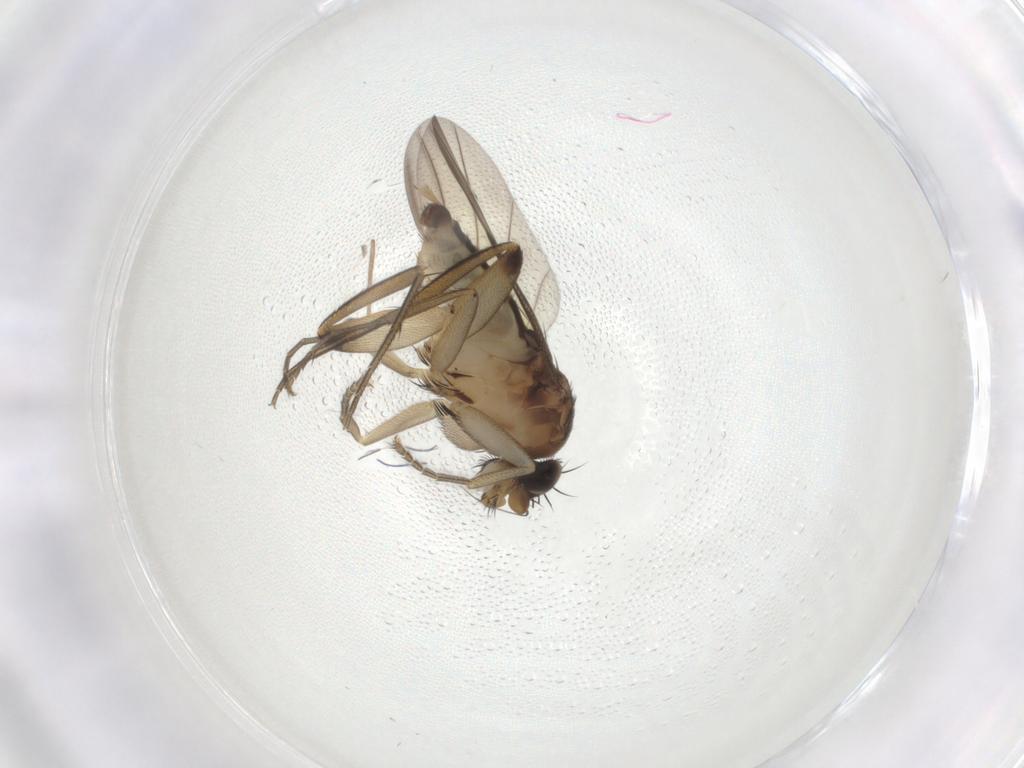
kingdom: Animalia
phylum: Arthropoda
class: Insecta
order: Diptera
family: Phoridae
